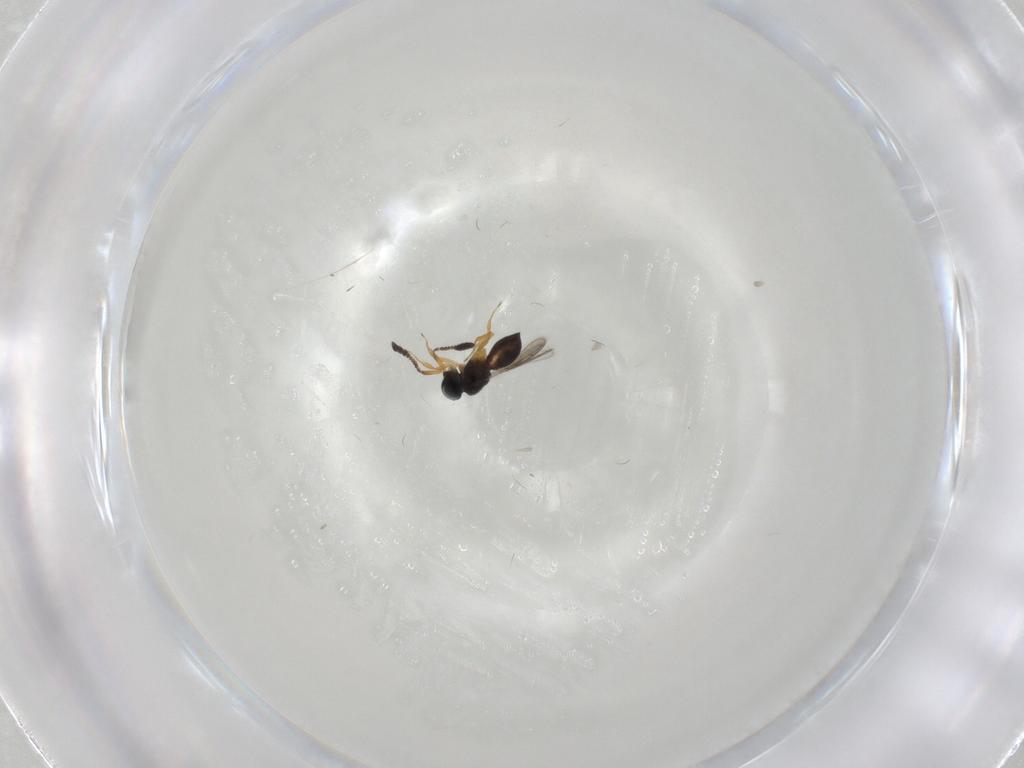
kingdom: Animalia
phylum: Arthropoda
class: Insecta
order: Hymenoptera
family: Scelionidae
